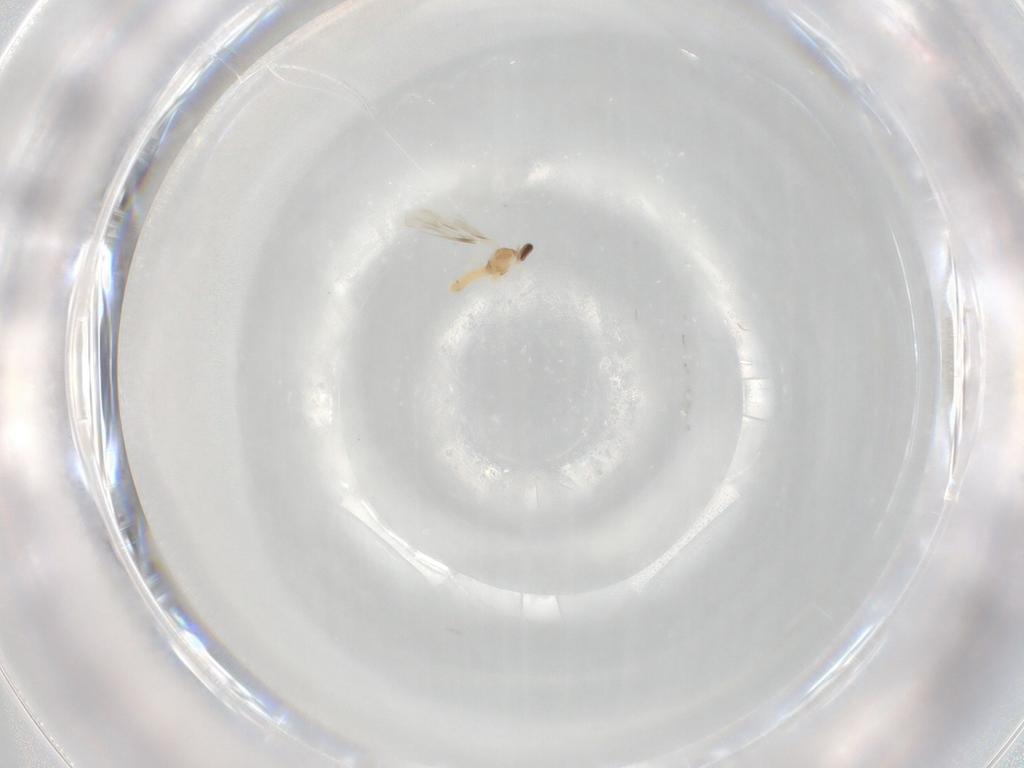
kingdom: Animalia
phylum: Arthropoda
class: Insecta
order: Diptera
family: Cecidomyiidae
